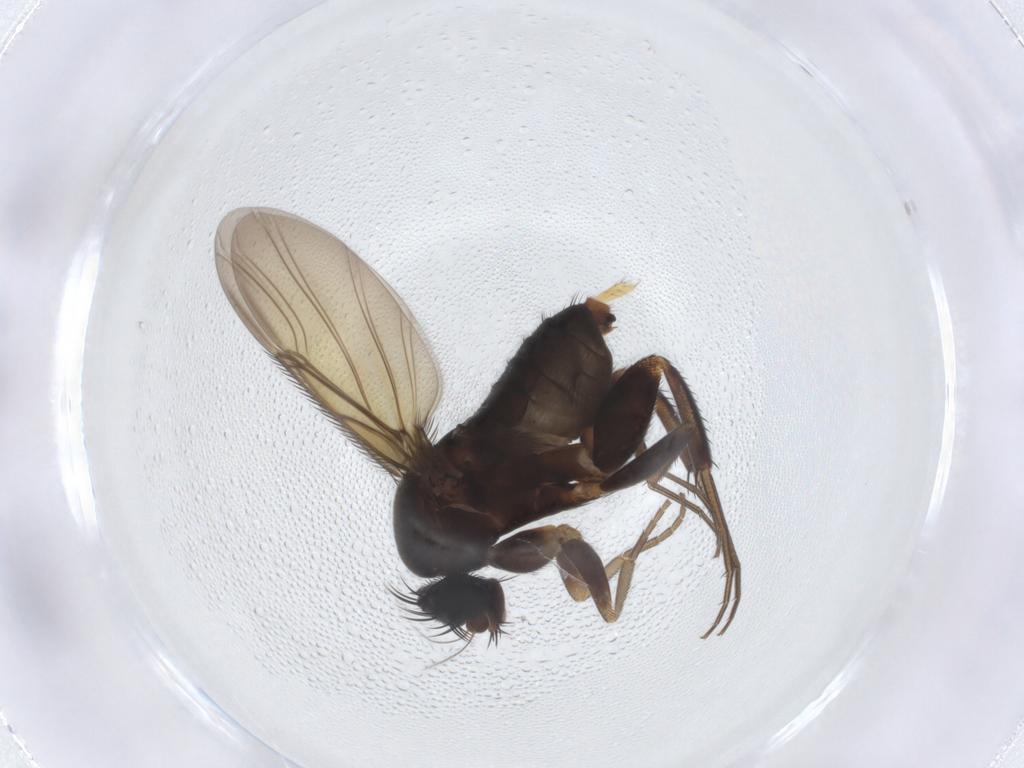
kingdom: Animalia
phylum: Arthropoda
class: Insecta
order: Diptera
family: Phoridae
